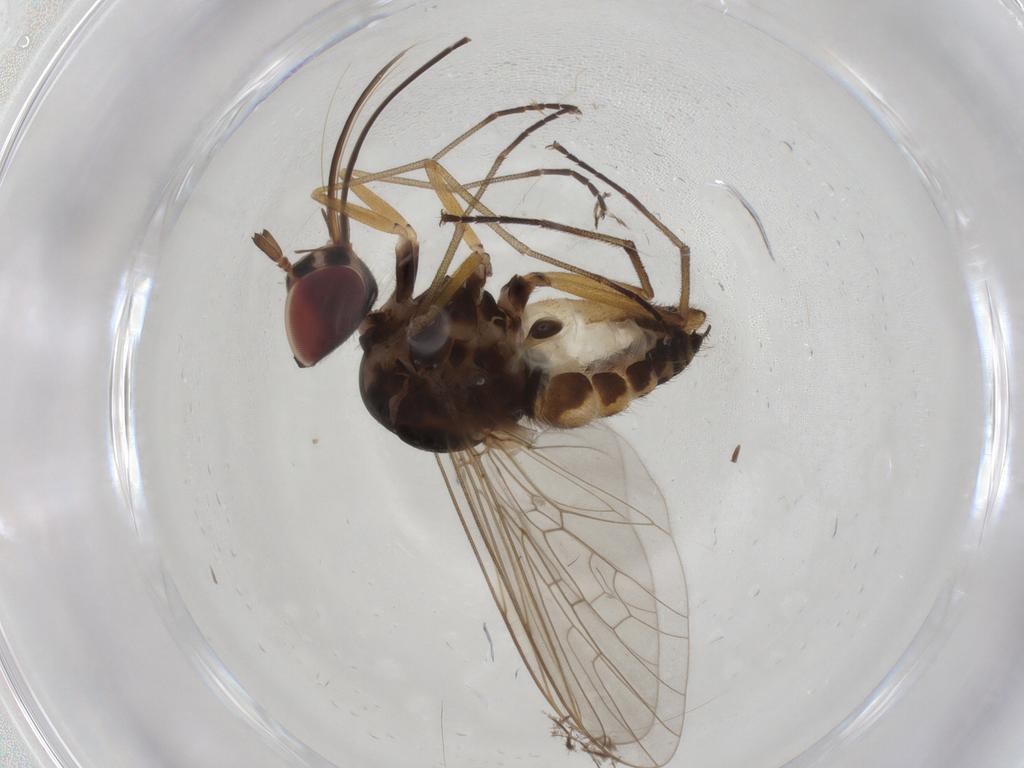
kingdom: Animalia
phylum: Arthropoda
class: Insecta
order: Diptera
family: Bombyliidae
